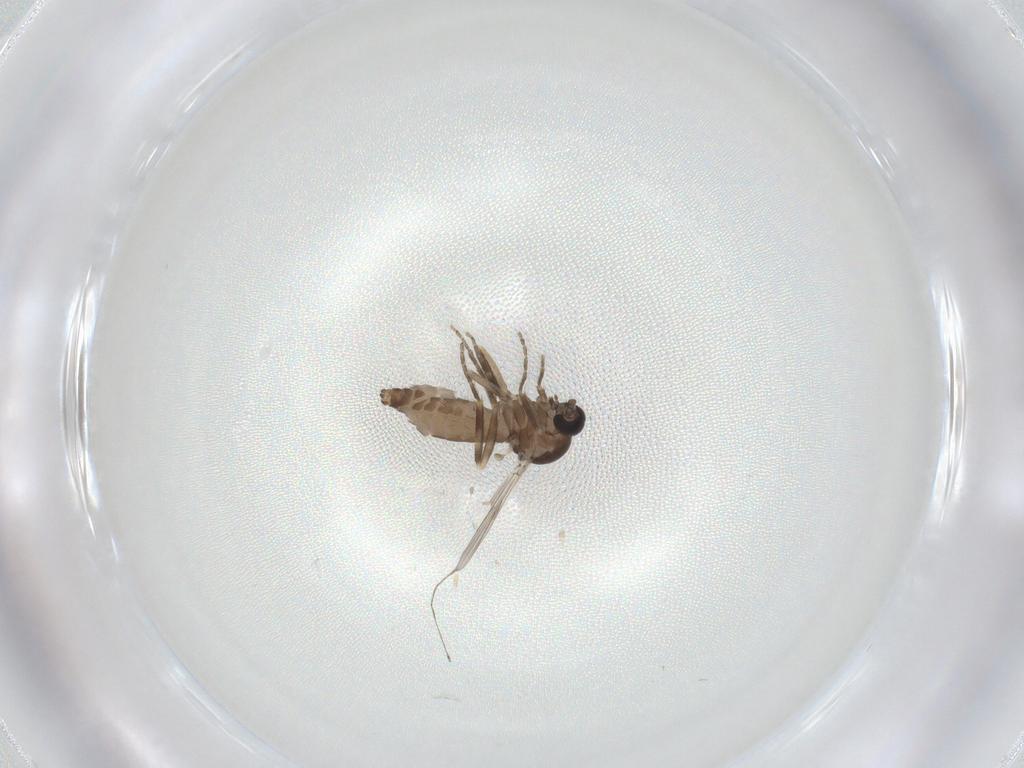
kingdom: Animalia
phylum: Arthropoda
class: Insecta
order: Diptera
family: Ceratopogonidae
